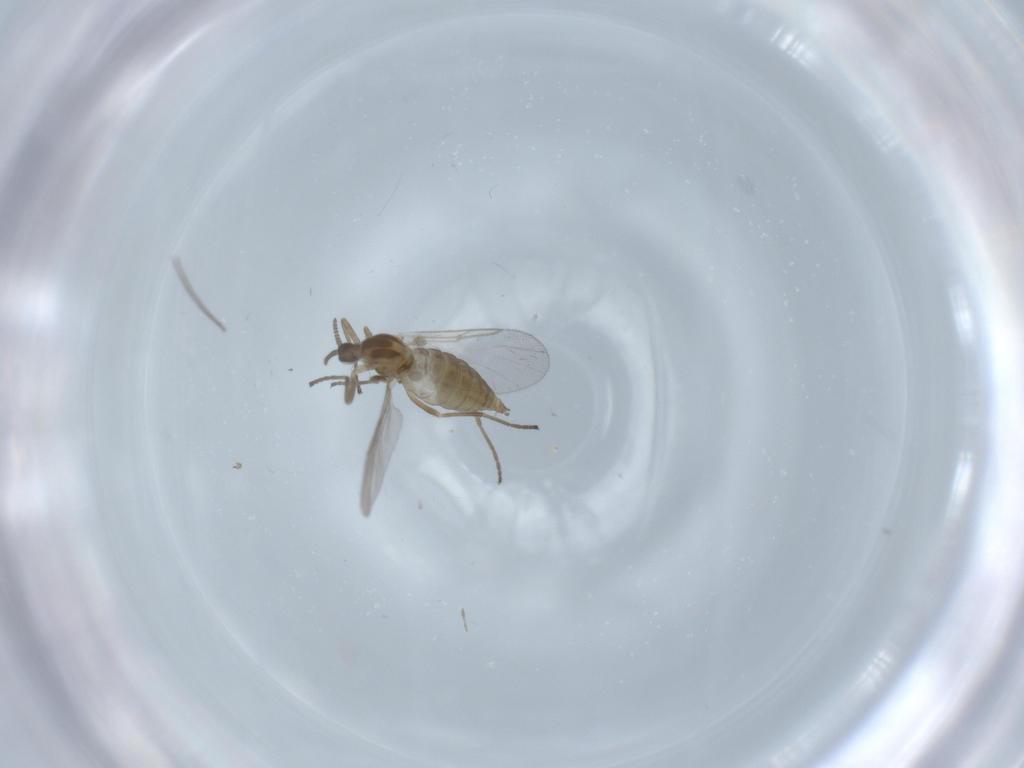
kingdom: Animalia
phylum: Arthropoda
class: Insecta
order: Diptera
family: Chironomidae
